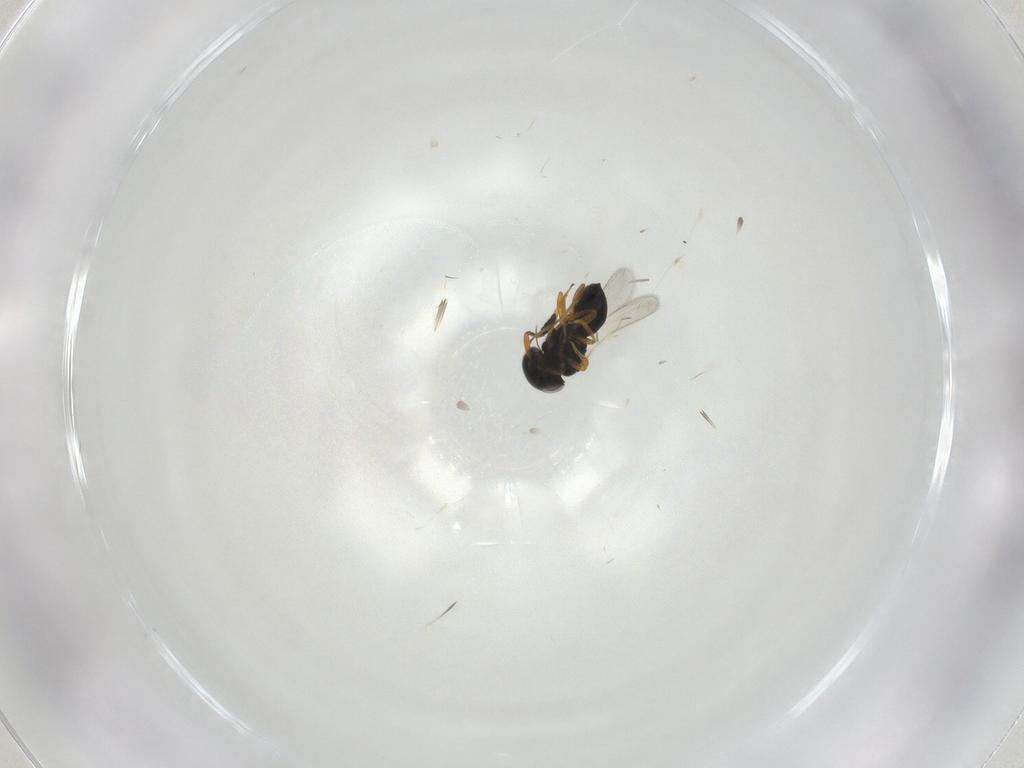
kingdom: Animalia
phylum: Arthropoda
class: Insecta
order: Hymenoptera
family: Scelionidae
